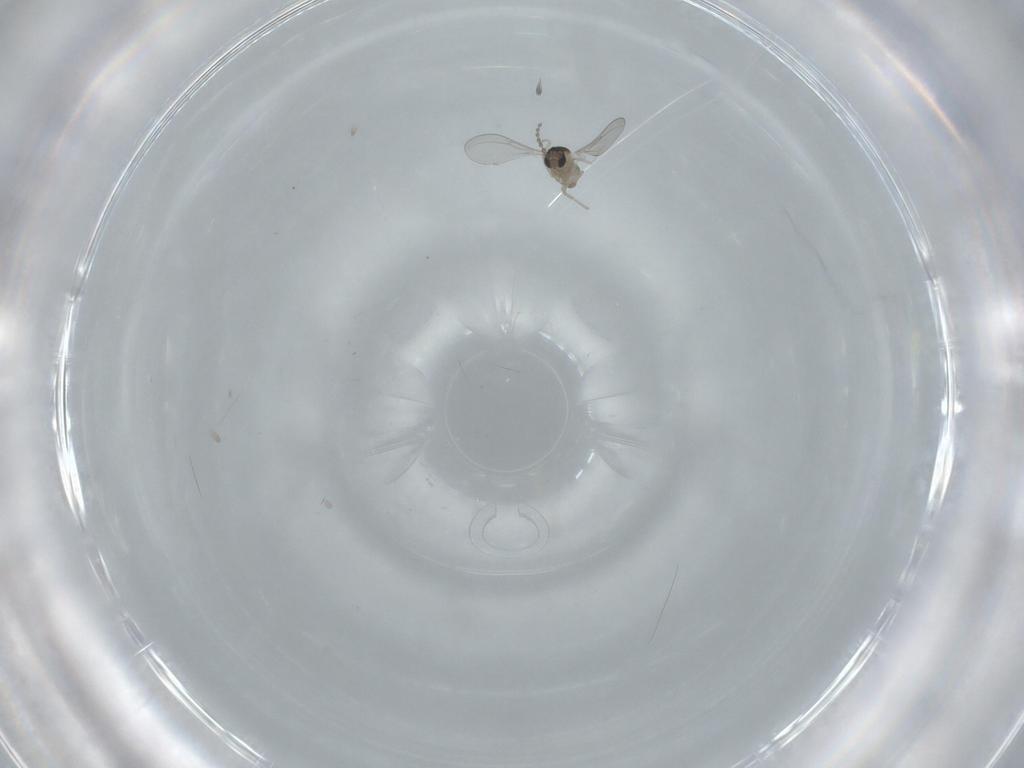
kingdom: Animalia
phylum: Arthropoda
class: Insecta
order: Diptera
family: Cecidomyiidae
